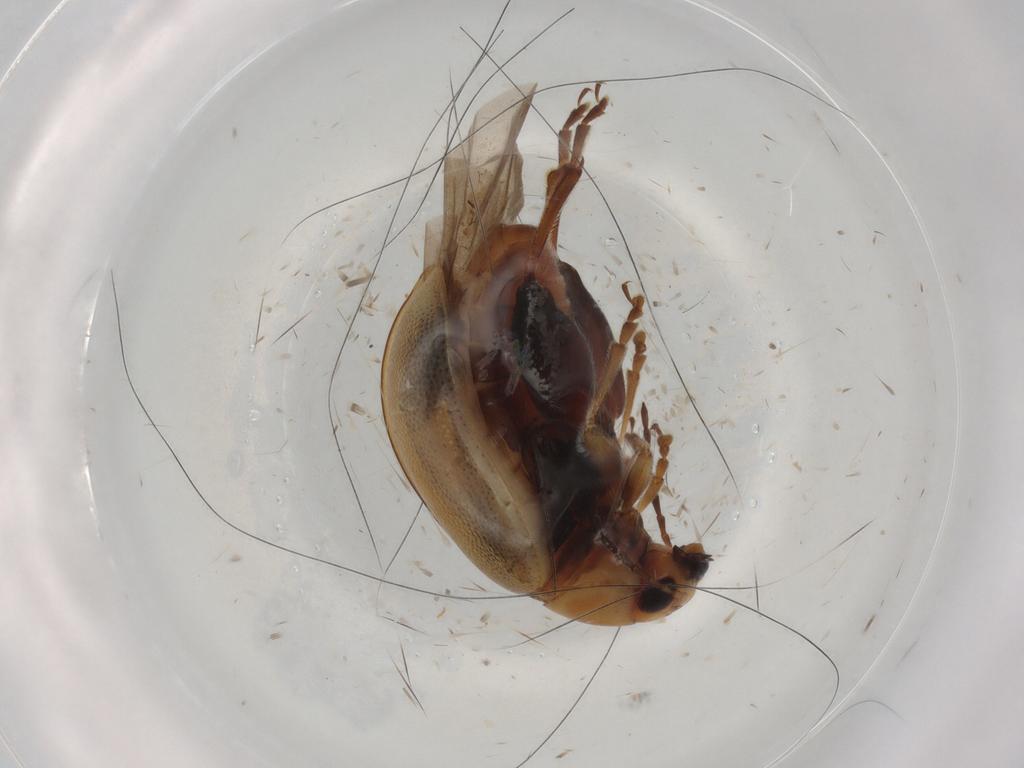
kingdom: Animalia
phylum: Arthropoda
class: Insecta
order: Coleoptera
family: Chrysomelidae
